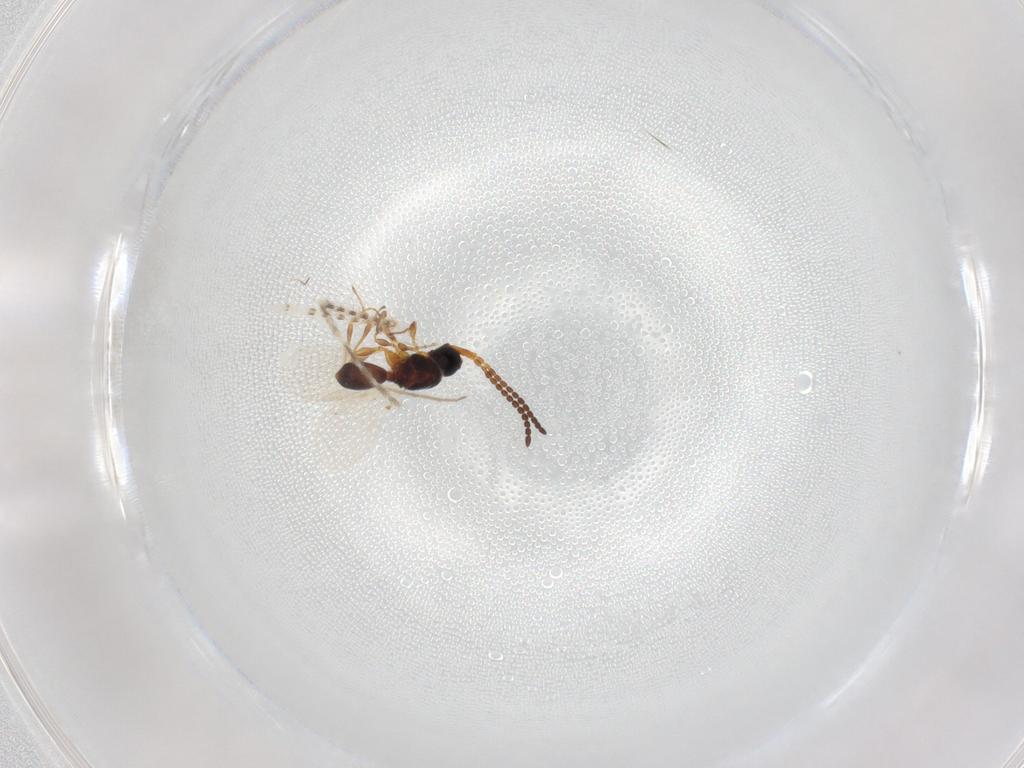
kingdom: Animalia
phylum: Arthropoda
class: Insecta
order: Hymenoptera
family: Diapriidae
